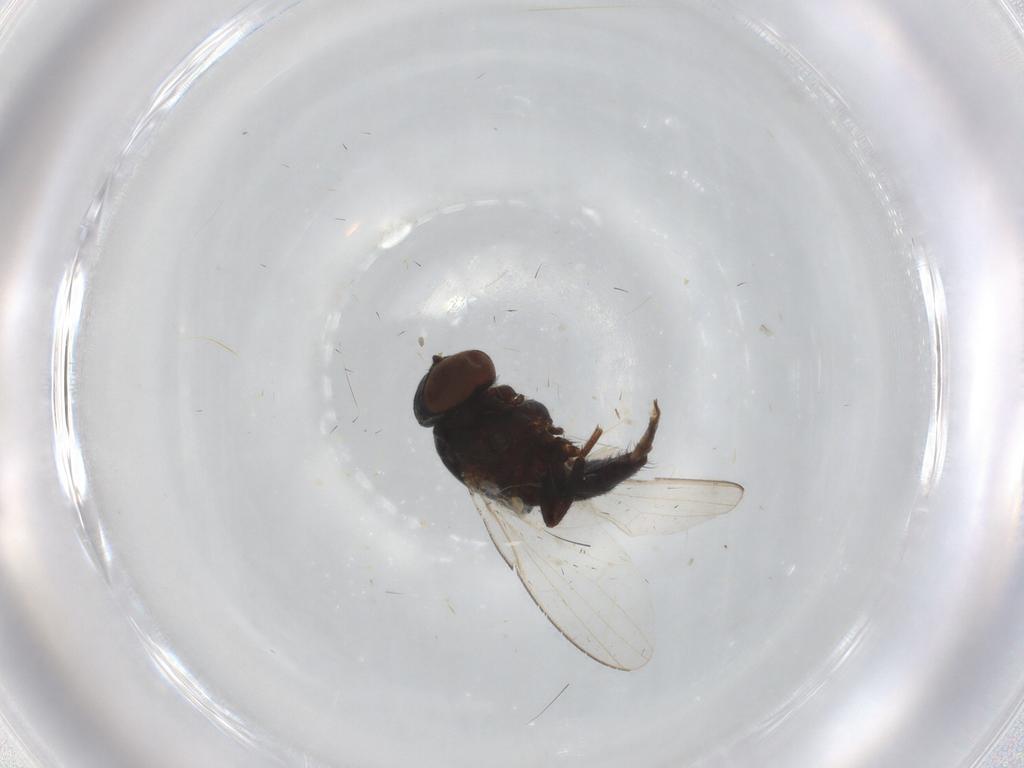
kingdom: Animalia
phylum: Arthropoda
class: Insecta
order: Diptera
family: Milichiidae
